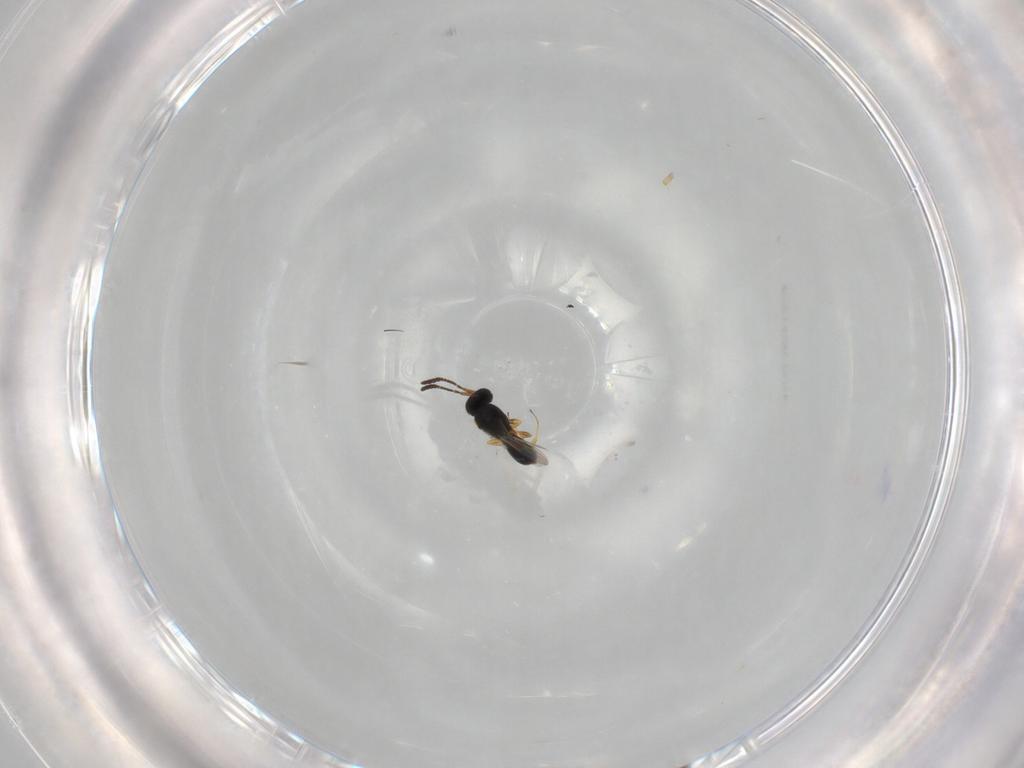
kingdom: Animalia
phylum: Arthropoda
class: Insecta
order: Hymenoptera
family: Scelionidae
